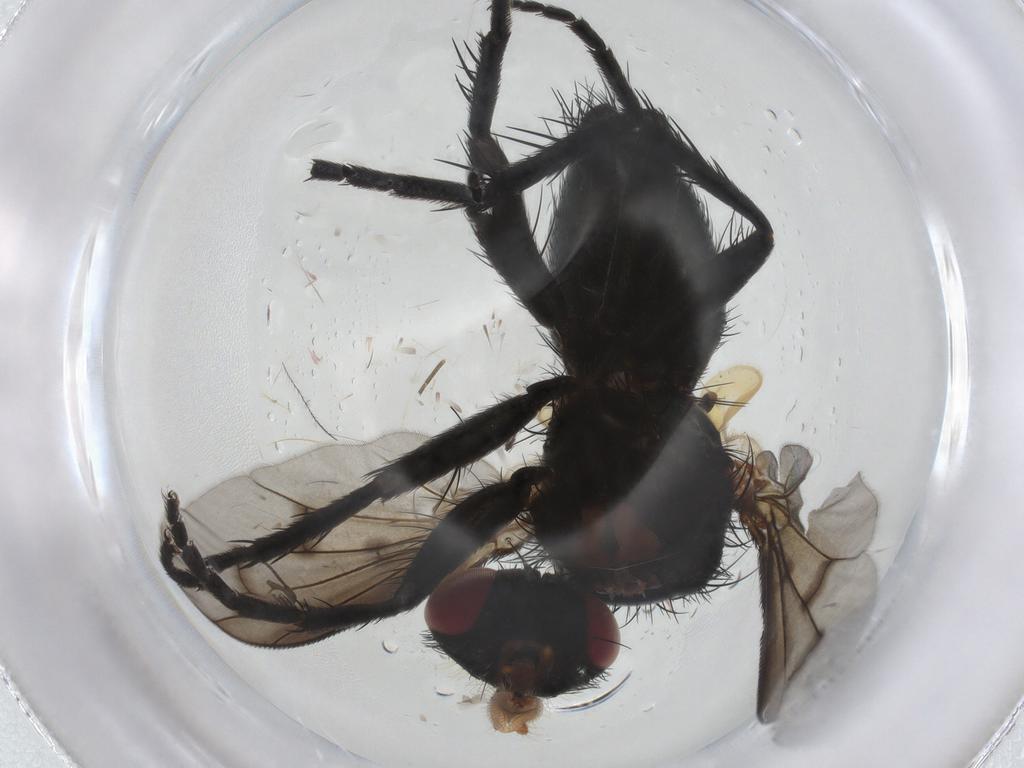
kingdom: Animalia
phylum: Arthropoda
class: Insecta
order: Diptera
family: Tachinidae
